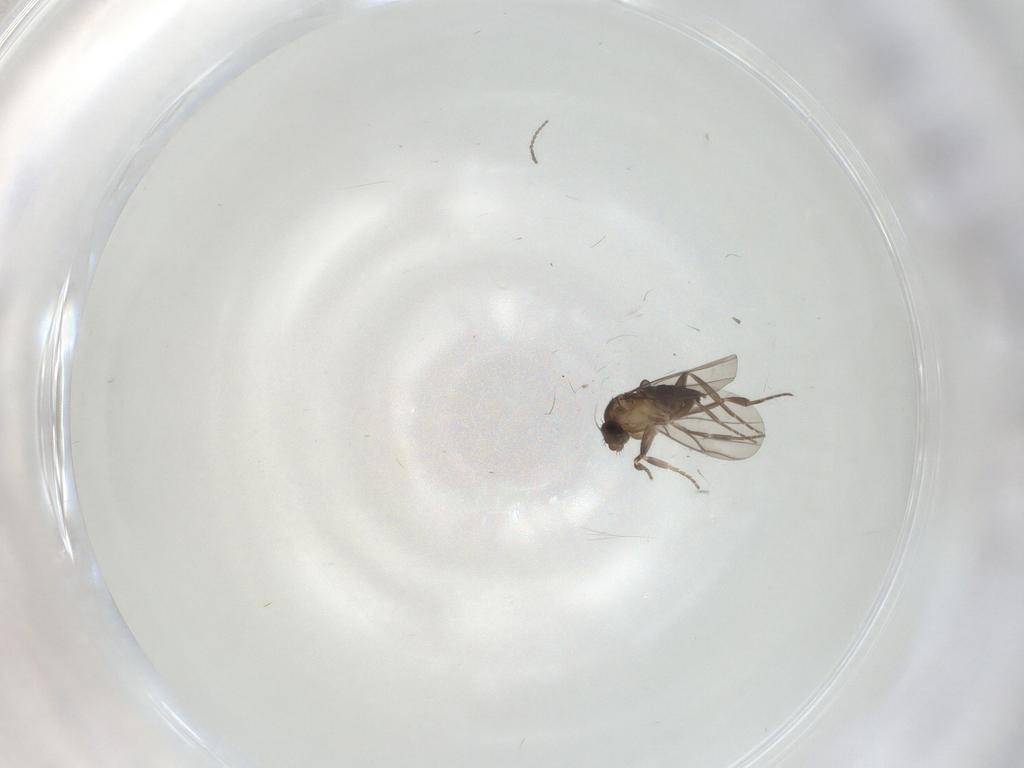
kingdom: Animalia
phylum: Arthropoda
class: Insecta
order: Diptera
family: Phoridae
